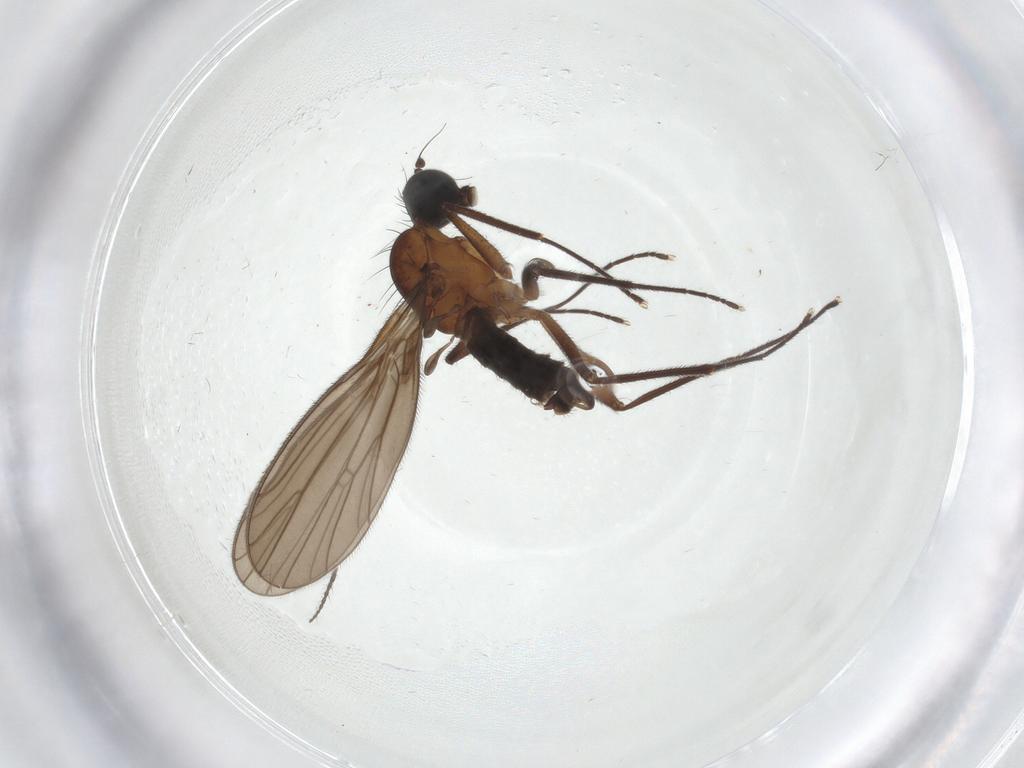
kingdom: Animalia
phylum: Arthropoda
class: Insecta
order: Diptera
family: Empididae
